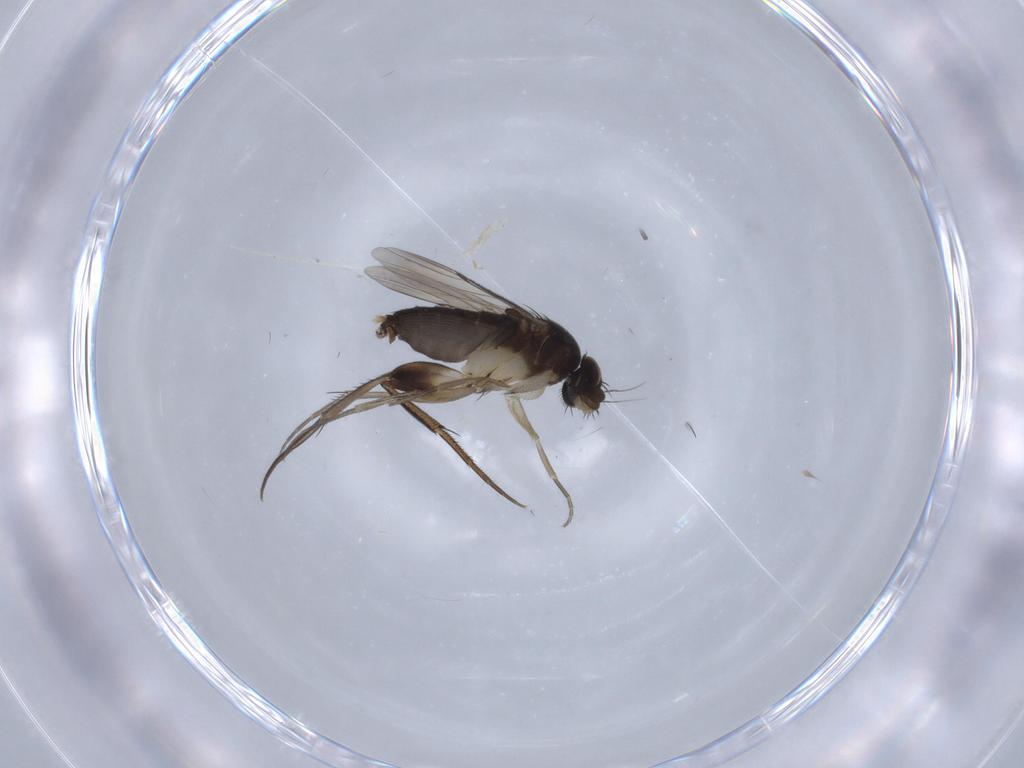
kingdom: Animalia
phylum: Arthropoda
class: Insecta
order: Diptera
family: Phoridae
